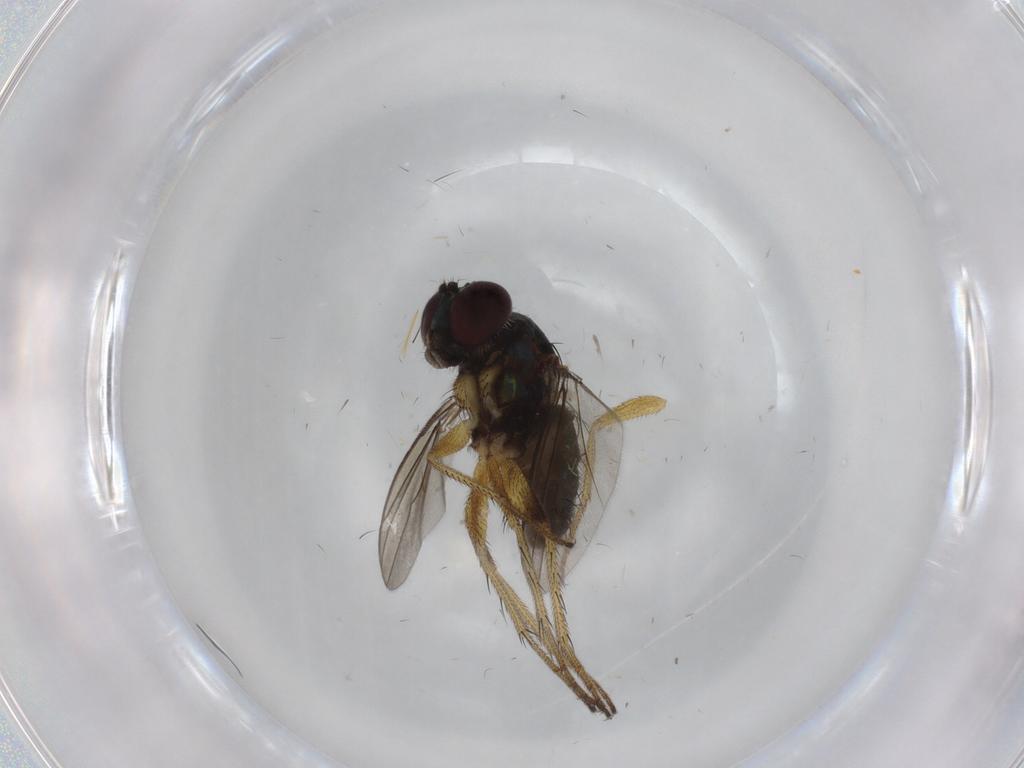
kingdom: Animalia
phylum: Arthropoda
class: Insecta
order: Diptera
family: Dolichopodidae
